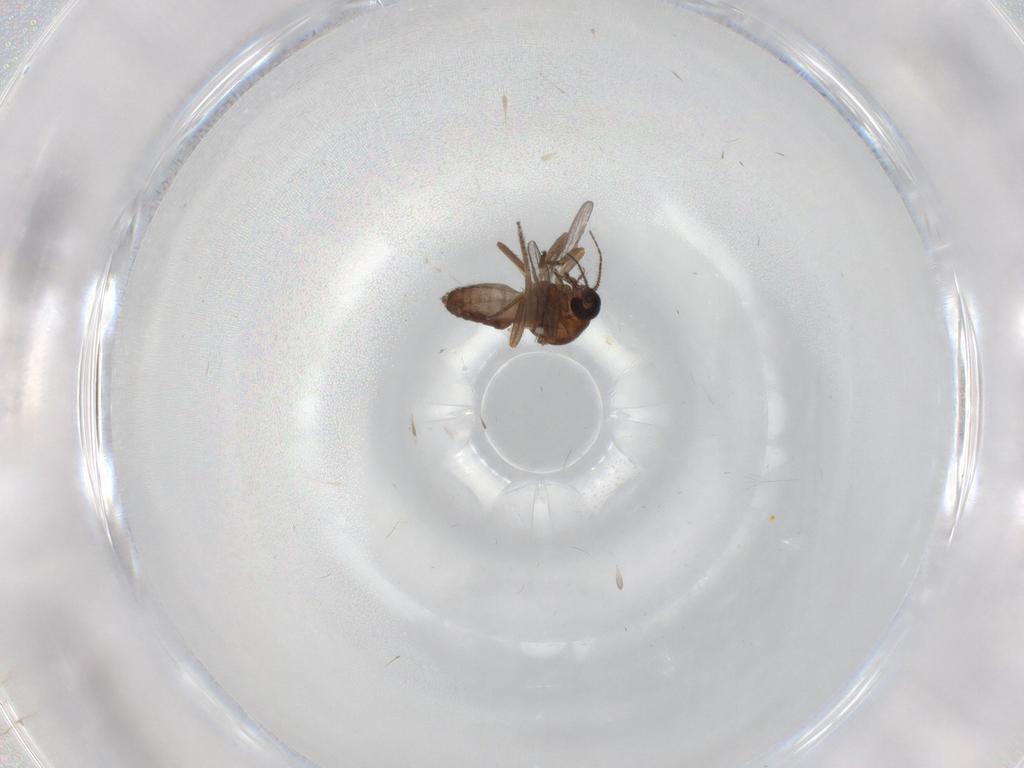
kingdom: Animalia
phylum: Arthropoda
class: Insecta
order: Diptera
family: Ceratopogonidae
